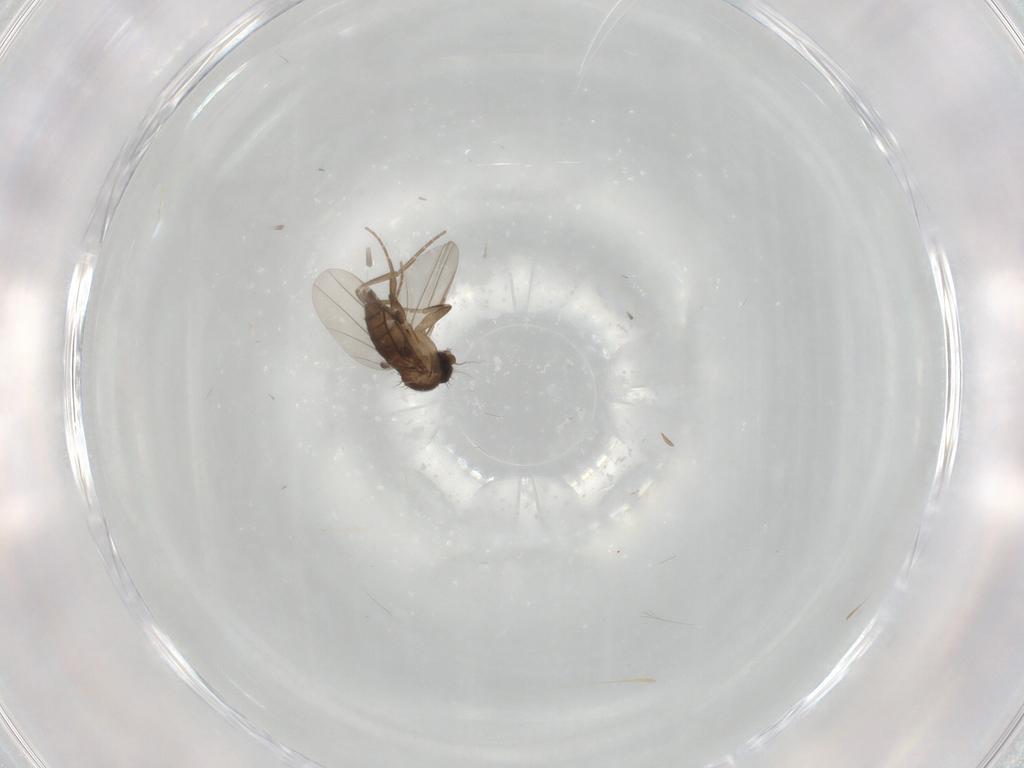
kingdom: Animalia
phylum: Arthropoda
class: Insecta
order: Diptera
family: Phoridae
